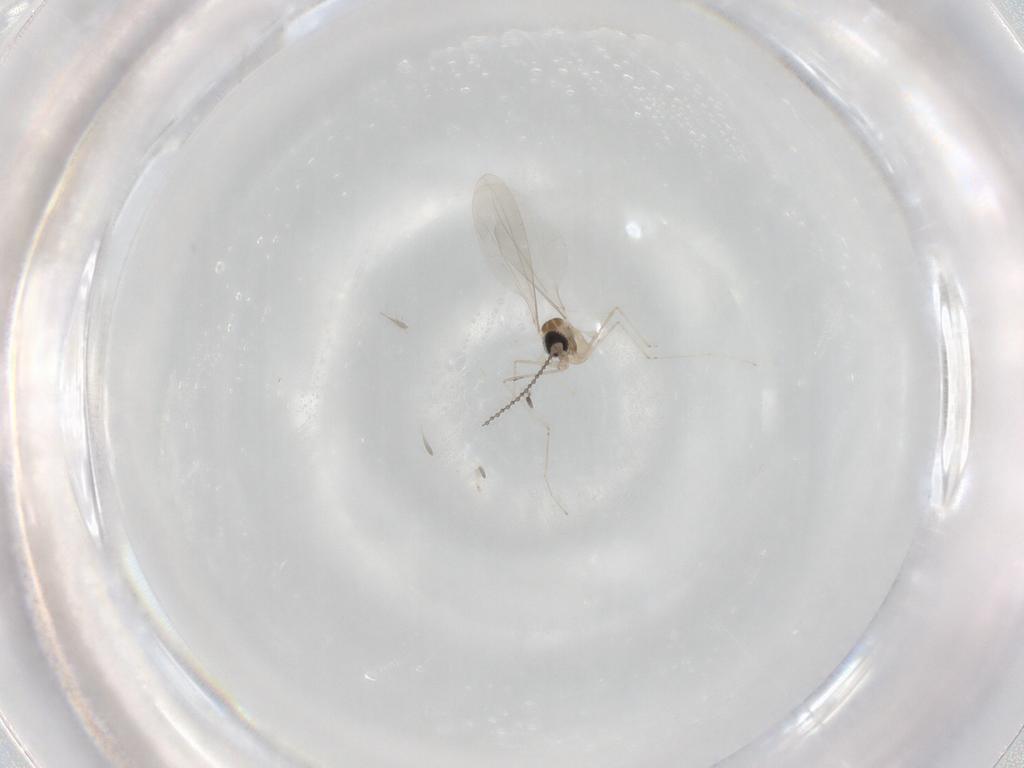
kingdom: Animalia
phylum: Arthropoda
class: Insecta
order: Diptera
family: Cecidomyiidae
